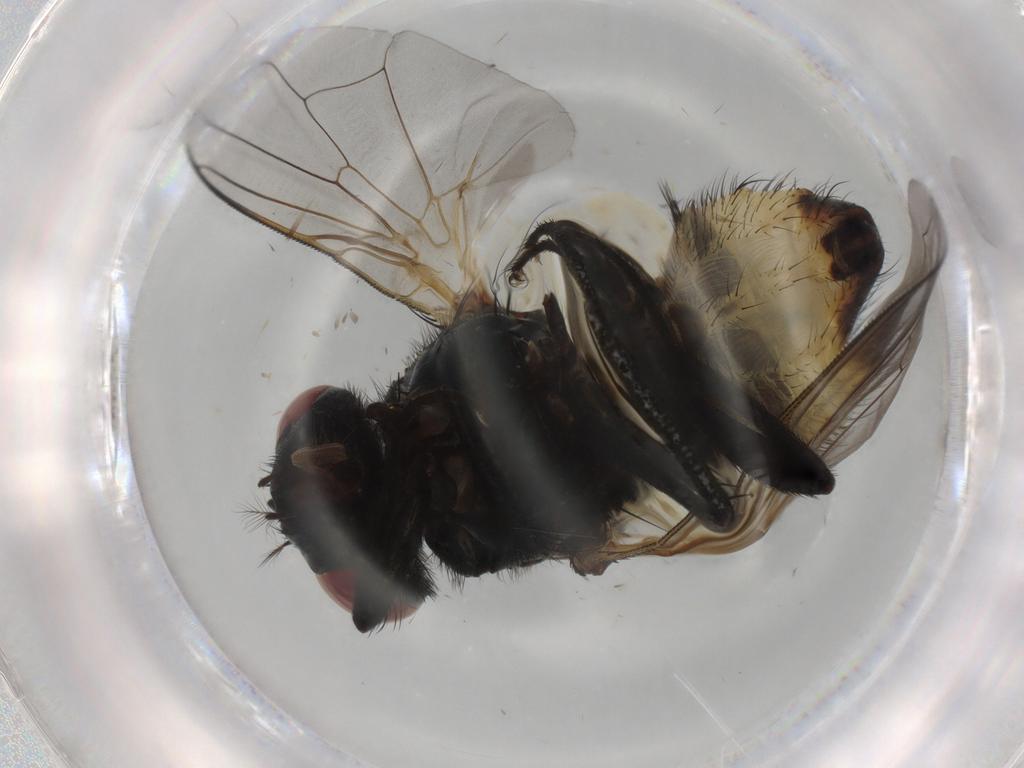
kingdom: Animalia
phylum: Arthropoda
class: Insecta
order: Diptera
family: Muscidae
